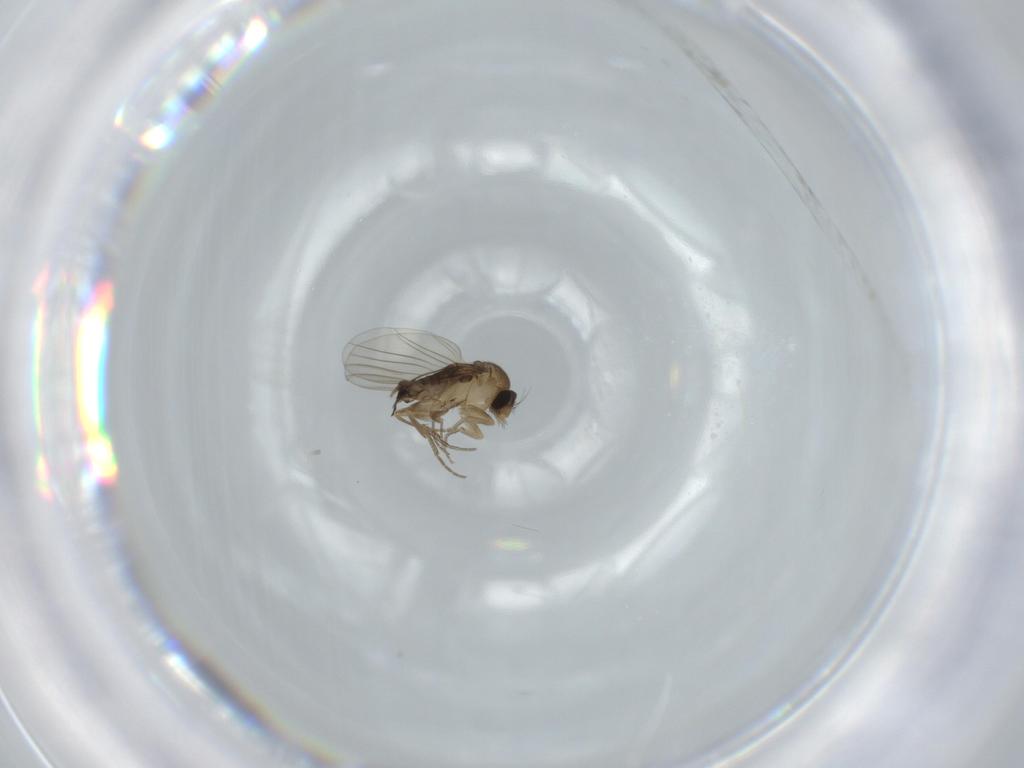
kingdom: Animalia
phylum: Arthropoda
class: Insecta
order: Diptera
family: Phoridae
